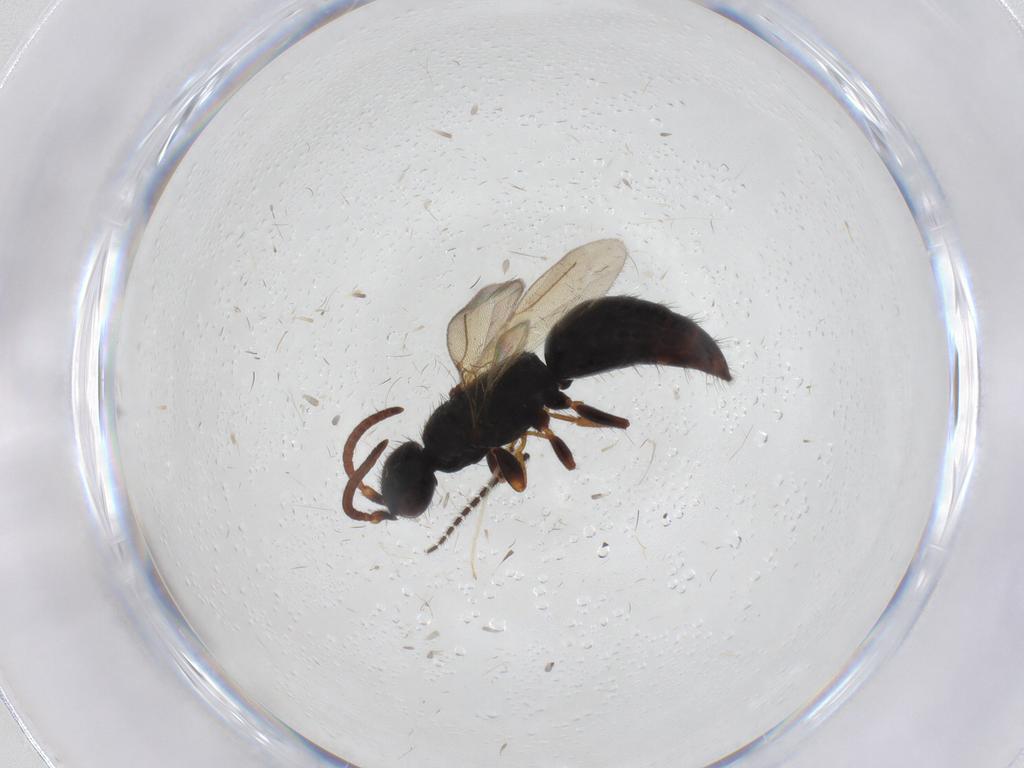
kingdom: Animalia
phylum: Arthropoda
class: Insecta
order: Hymenoptera
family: Bethylidae
